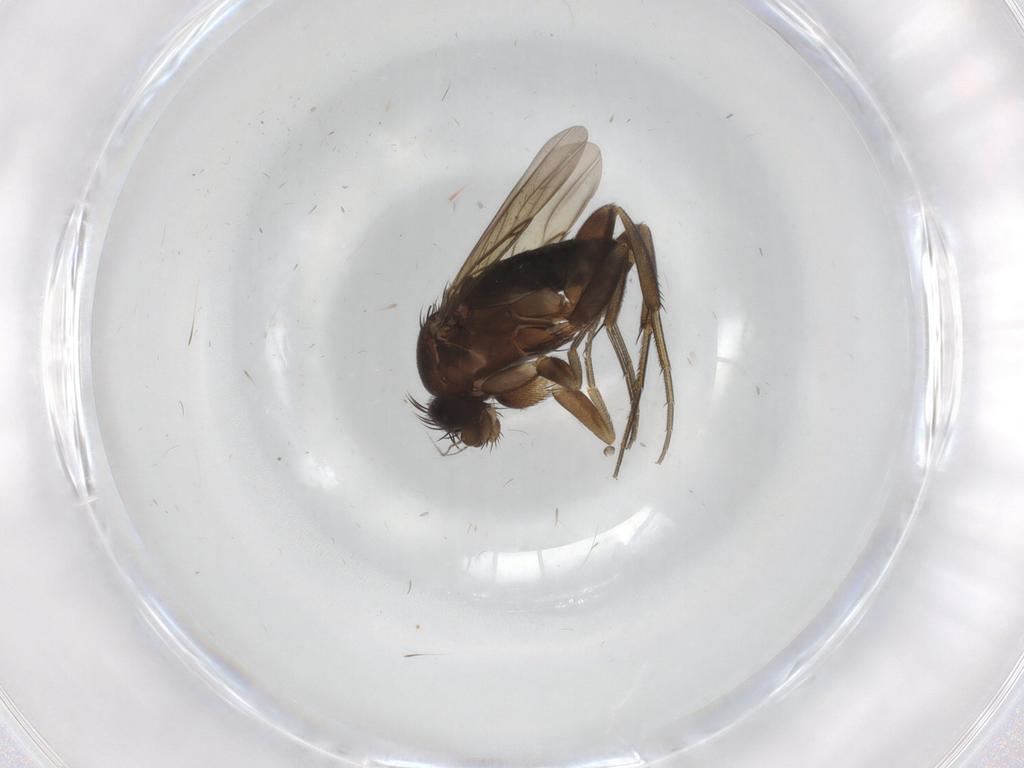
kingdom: Animalia
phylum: Arthropoda
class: Insecta
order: Diptera
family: Phoridae
